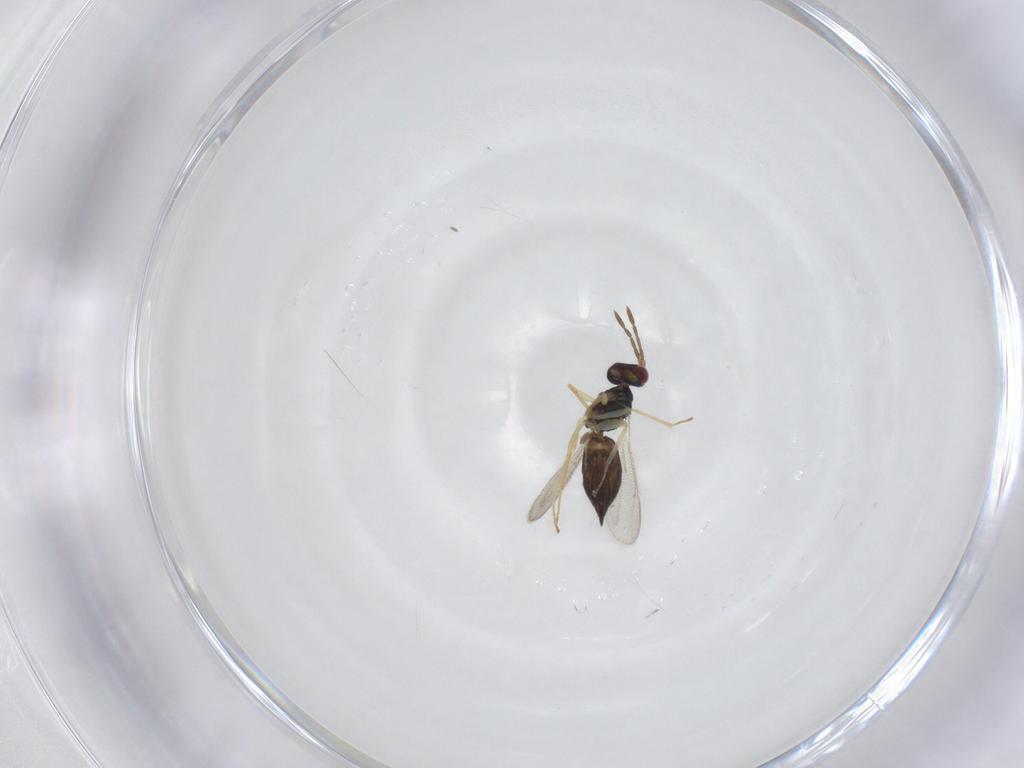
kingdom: Animalia
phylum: Arthropoda
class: Insecta
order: Hymenoptera
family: Eulophidae
